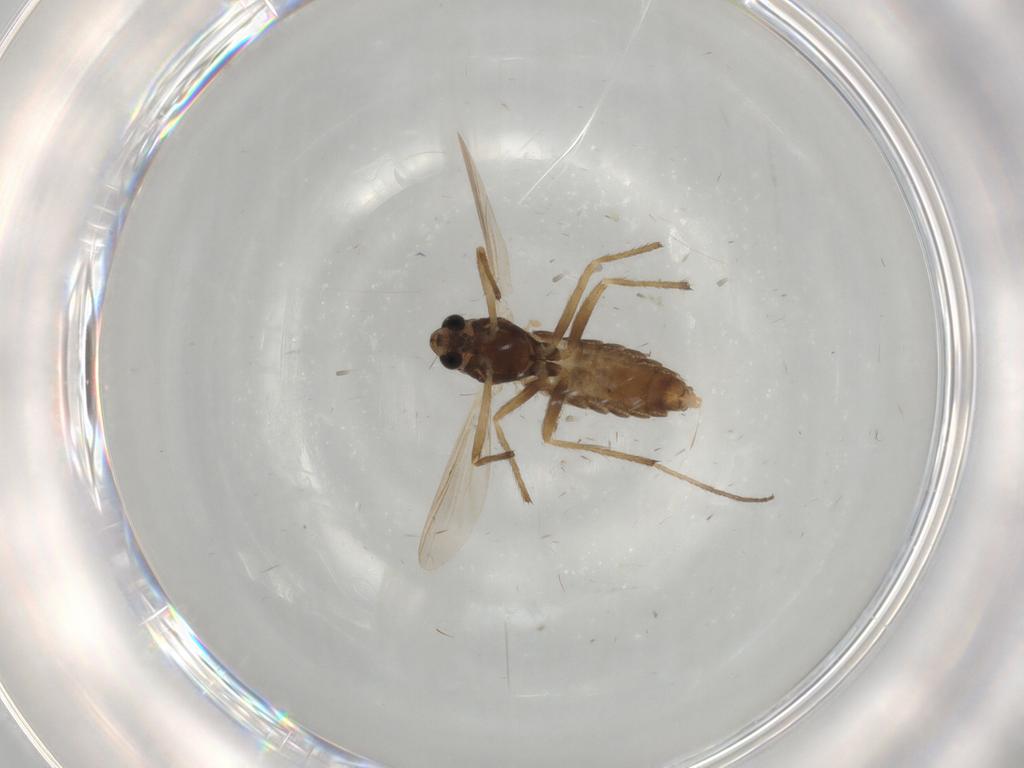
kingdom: Animalia
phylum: Arthropoda
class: Insecta
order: Diptera
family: Chironomidae
